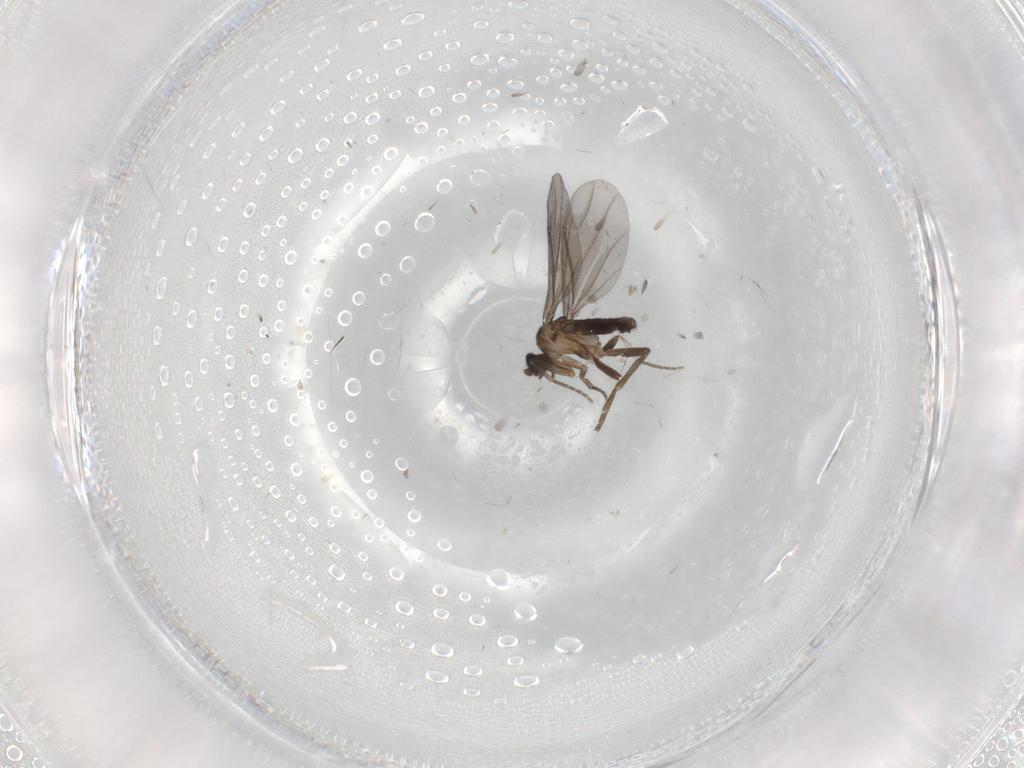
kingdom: Animalia
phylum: Arthropoda
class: Insecta
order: Diptera
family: Phoridae
